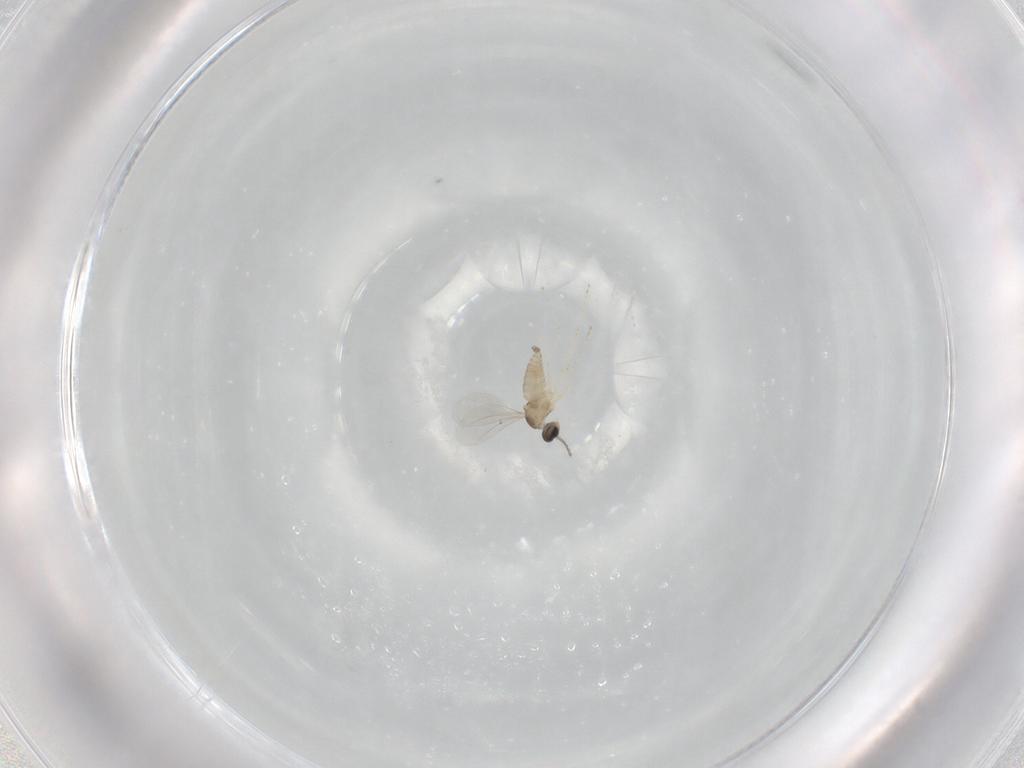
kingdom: Animalia
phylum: Arthropoda
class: Insecta
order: Diptera
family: Cecidomyiidae
